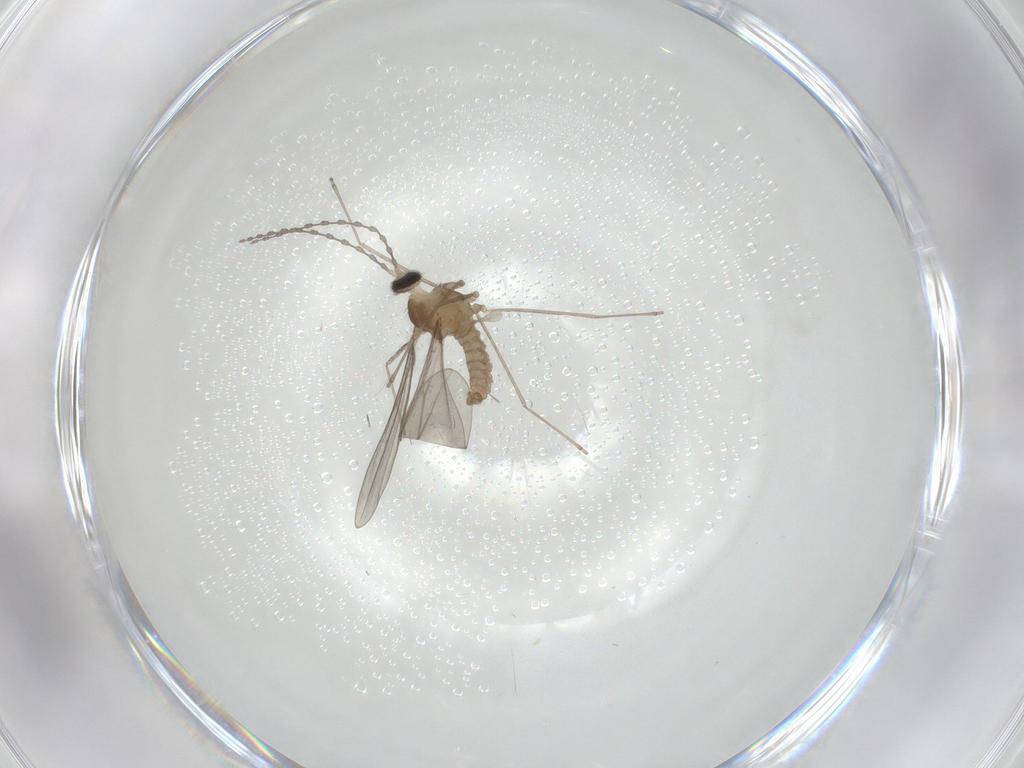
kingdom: Animalia
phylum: Arthropoda
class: Insecta
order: Diptera
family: Cecidomyiidae
